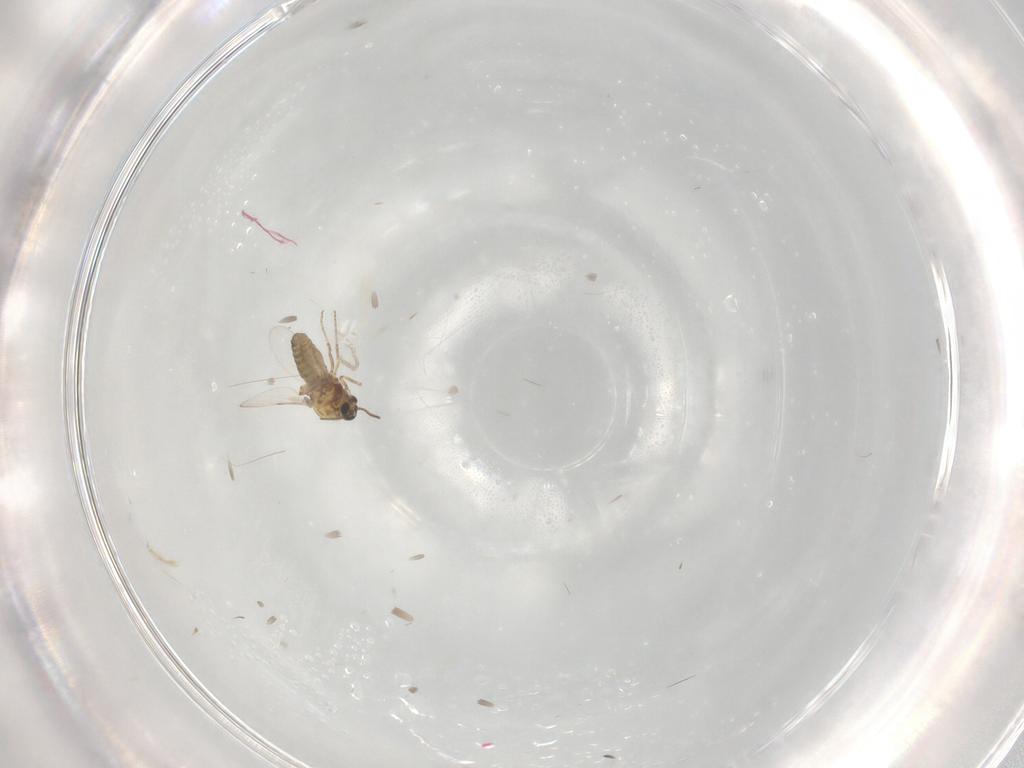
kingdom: Animalia
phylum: Arthropoda
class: Insecta
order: Diptera
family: Ceratopogonidae
